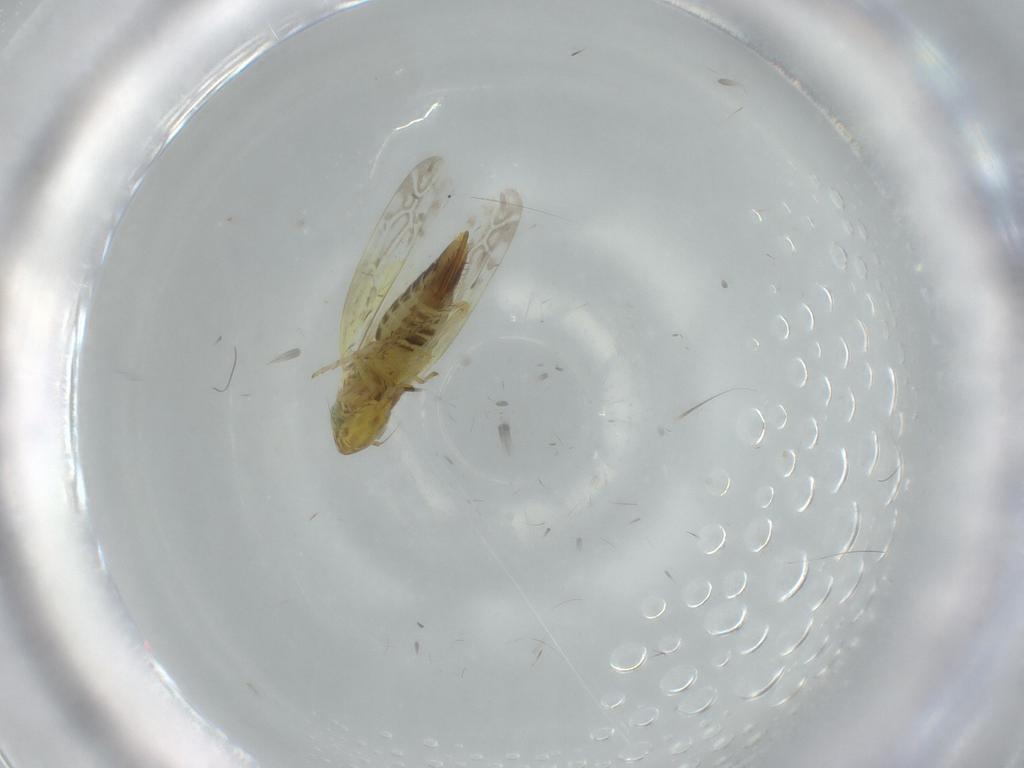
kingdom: Animalia
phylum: Arthropoda
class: Insecta
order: Hemiptera
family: Cicadellidae
